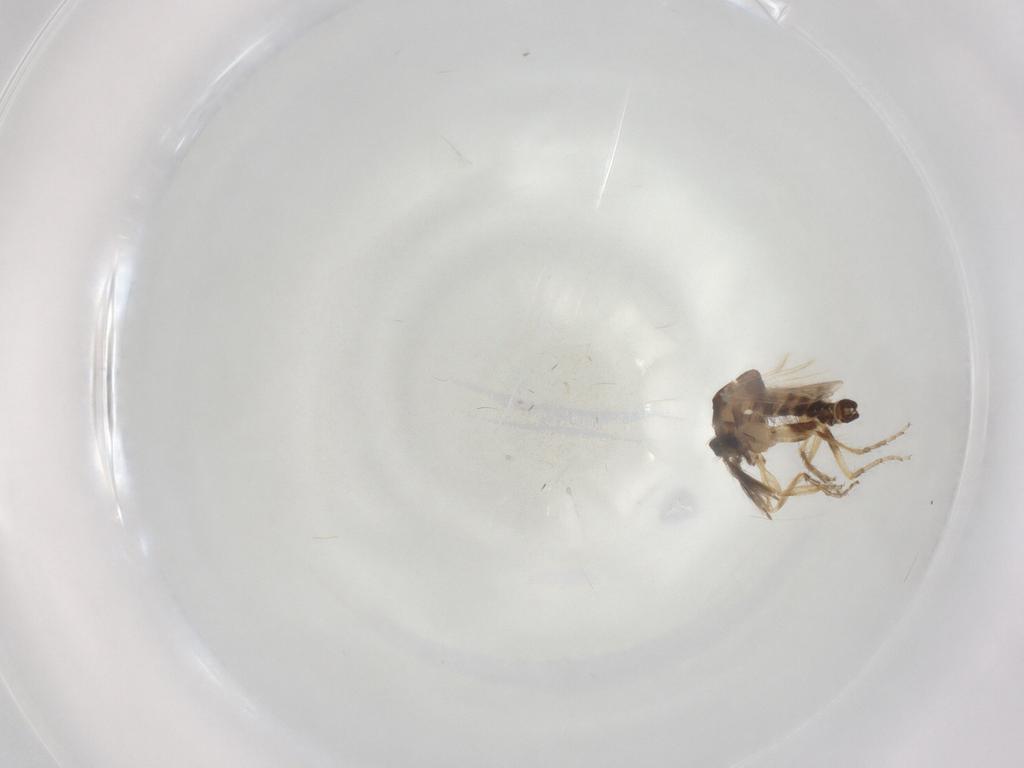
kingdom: Animalia
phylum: Arthropoda
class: Insecta
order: Diptera
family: Ceratopogonidae
